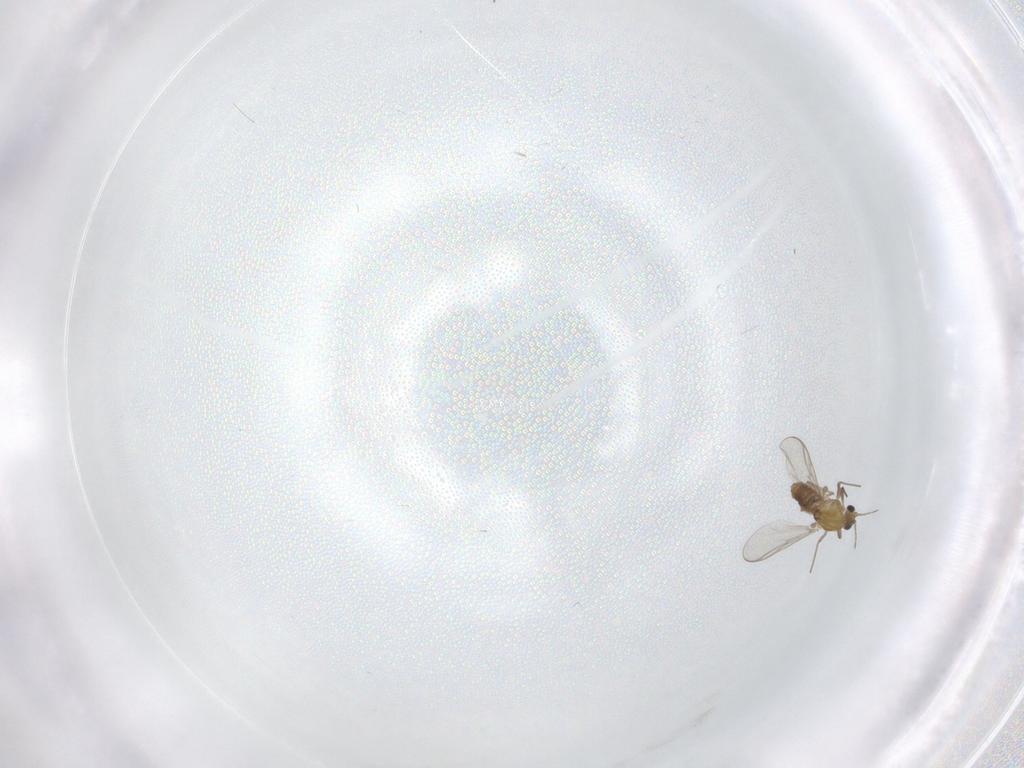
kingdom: Animalia
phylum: Arthropoda
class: Insecta
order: Diptera
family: Chironomidae
